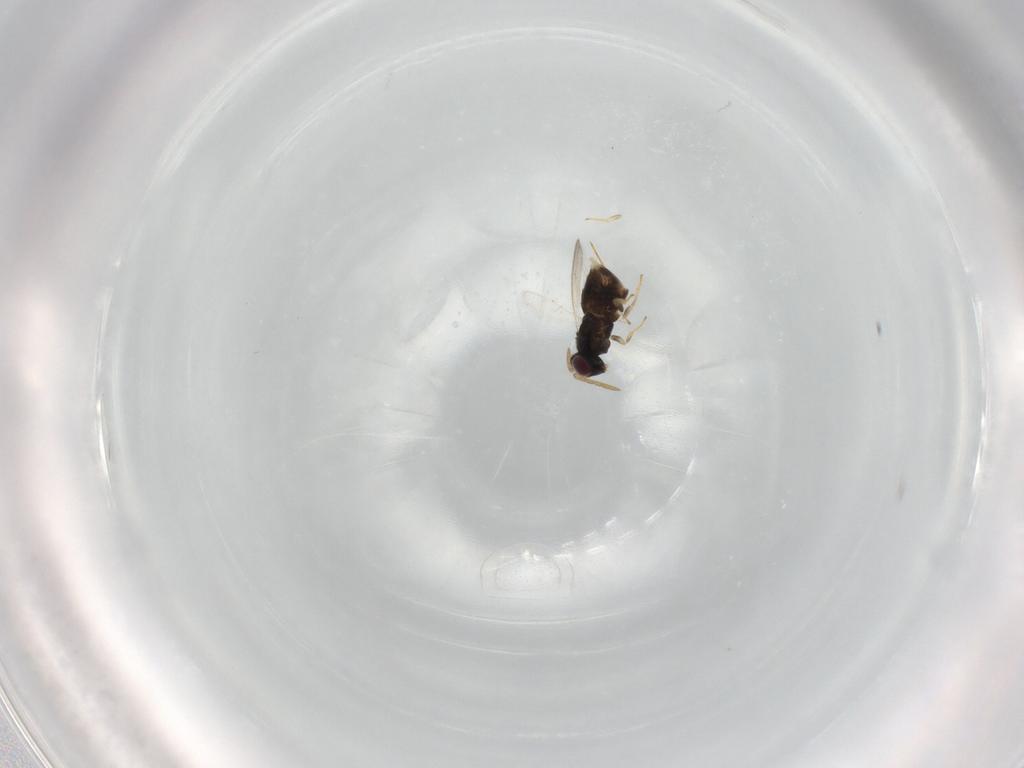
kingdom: Animalia
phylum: Arthropoda
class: Insecta
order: Hymenoptera
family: Aphelinidae
